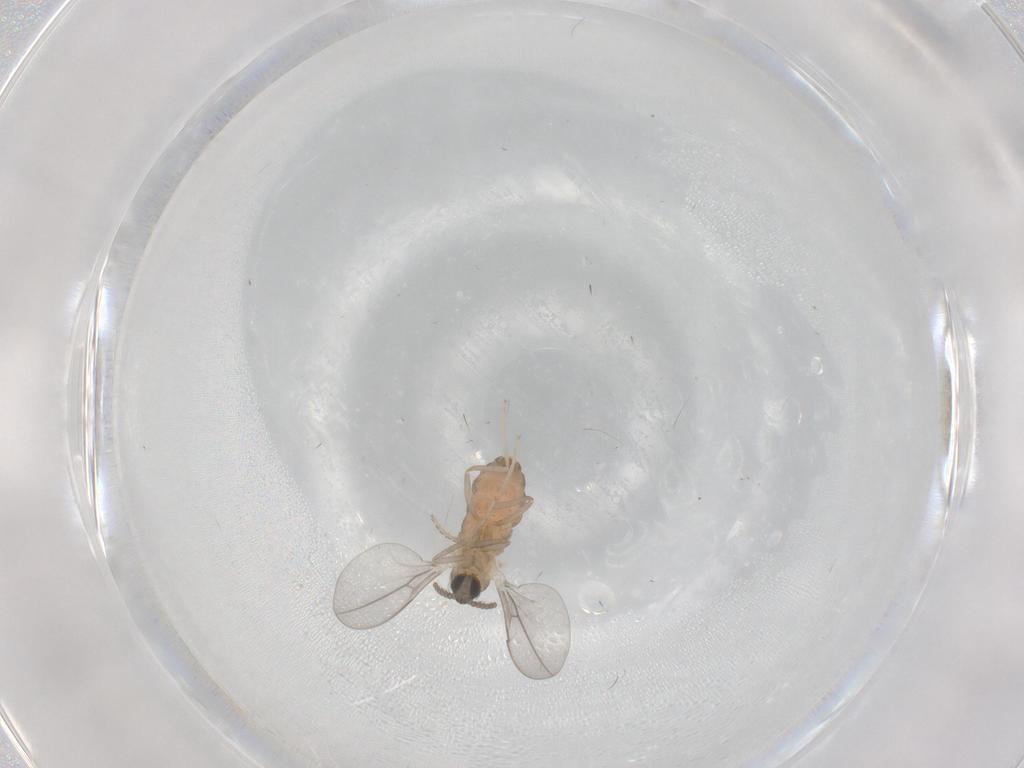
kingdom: Animalia
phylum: Arthropoda
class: Insecta
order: Diptera
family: Cecidomyiidae
